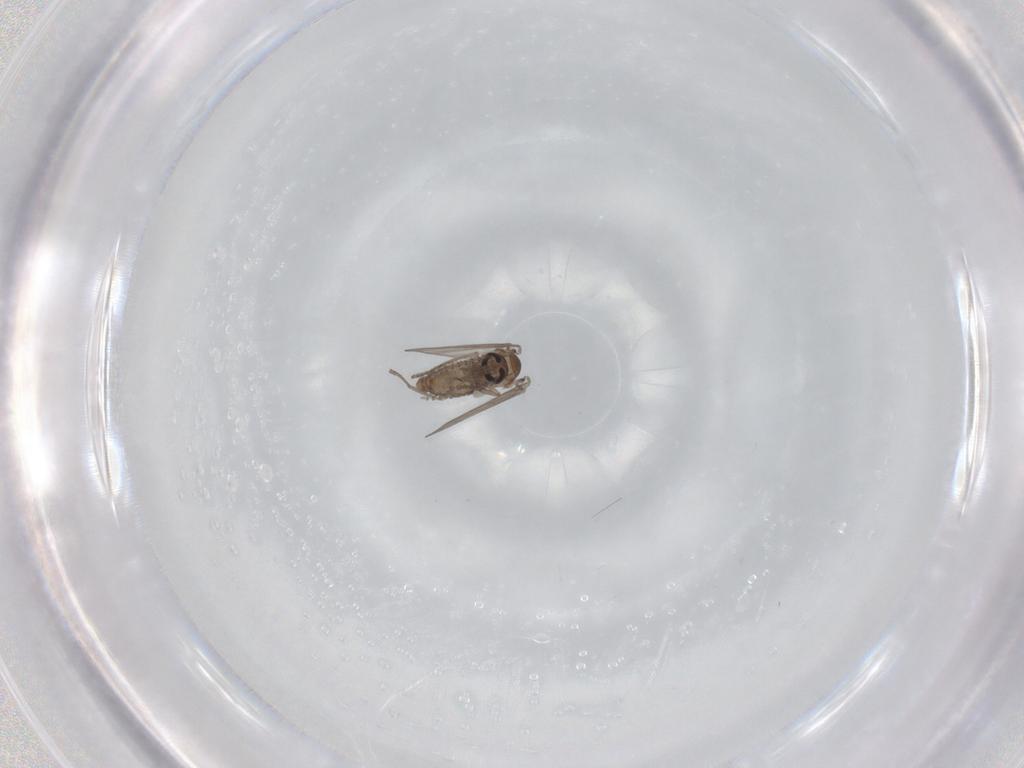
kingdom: Animalia
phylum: Arthropoda
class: Insecta
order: Diptera
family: Psychodidae
